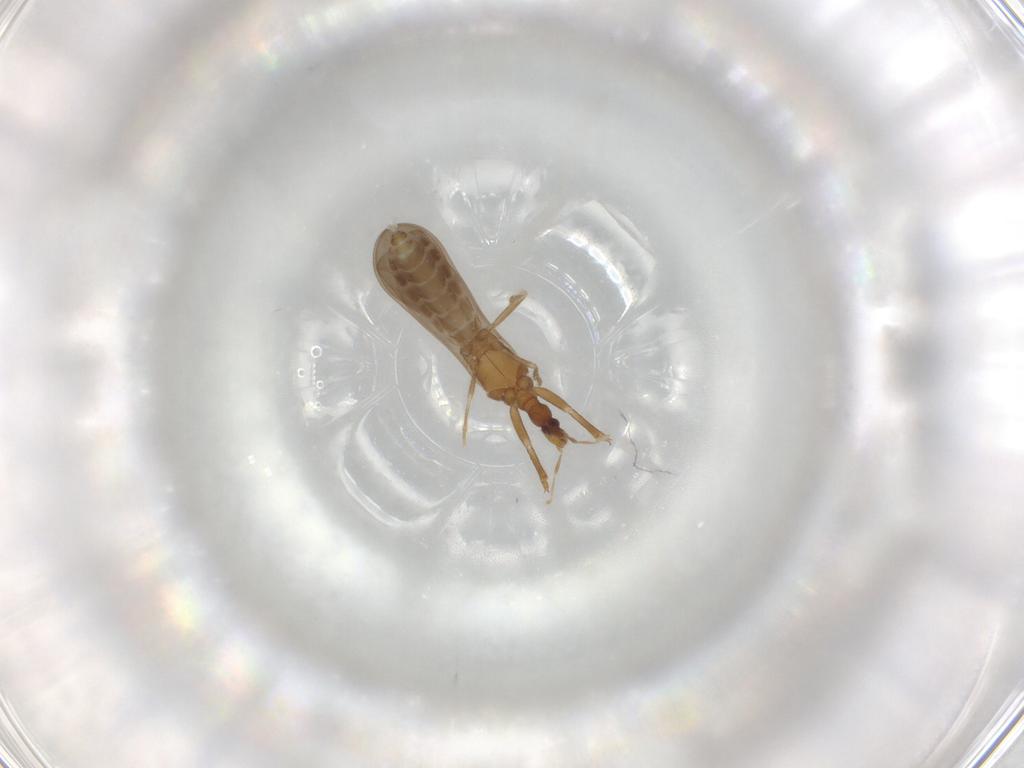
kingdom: Animalia
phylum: Arthropoda
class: Insecta
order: Hemiptera
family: Enicocephalidae
